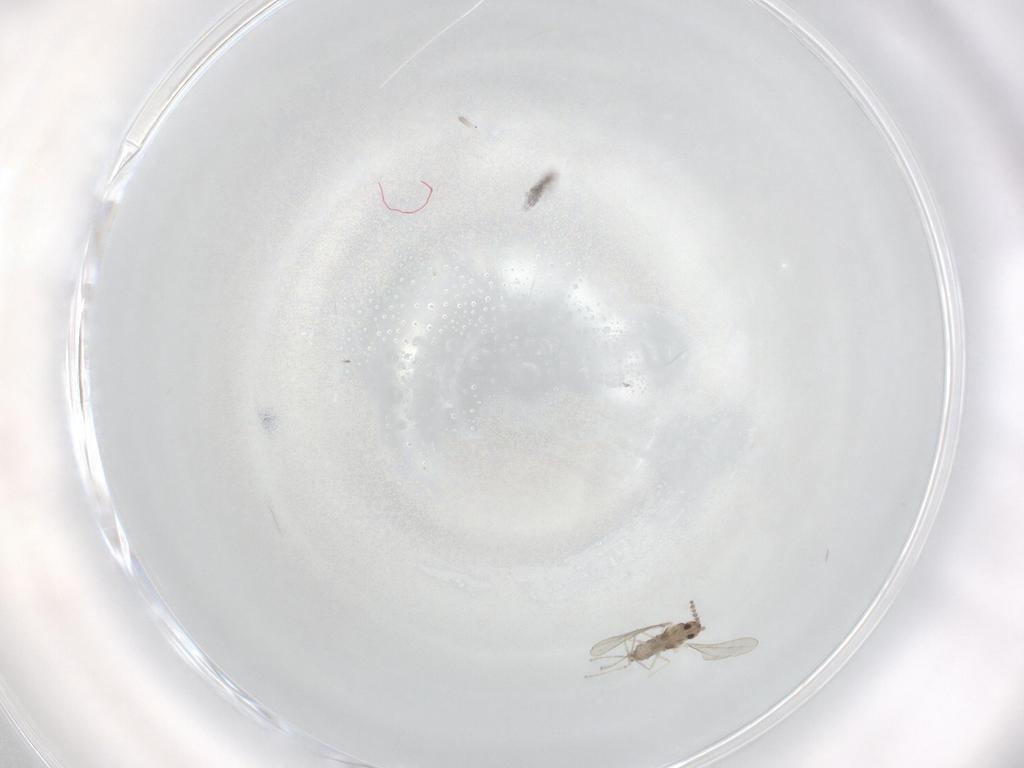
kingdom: Animalia
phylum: Arthropoda
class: Insecta
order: Diptera
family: Cecidomyiidae
